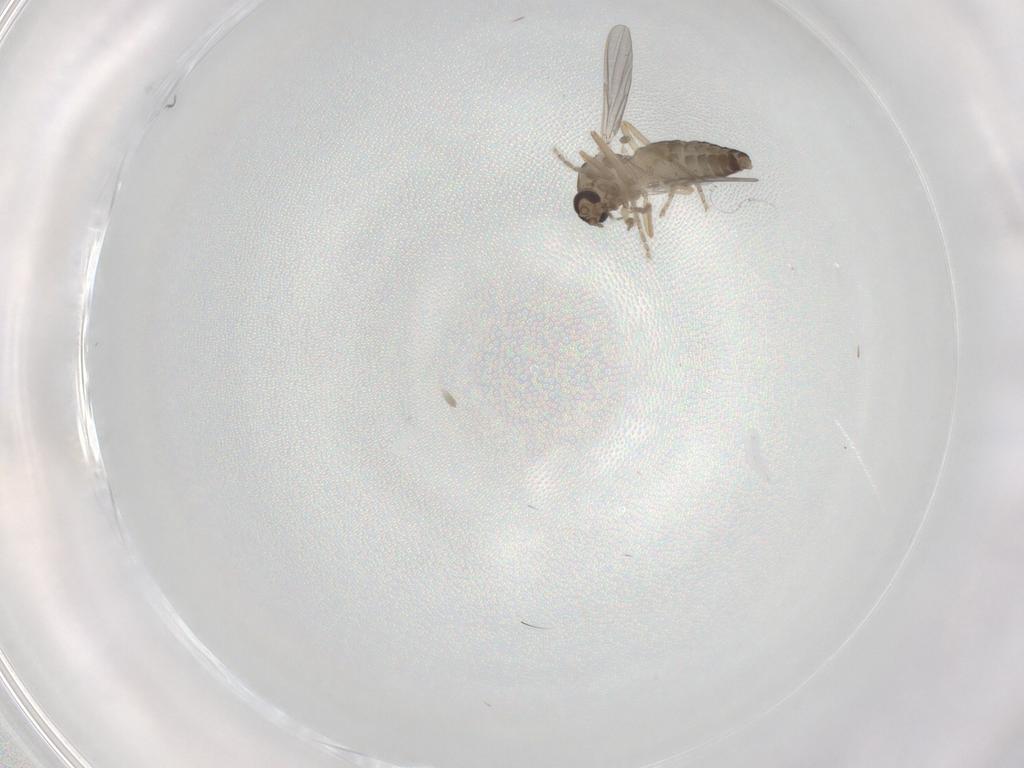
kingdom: Animalia
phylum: Arthropoda
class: Insecta
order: Diptera
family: Ceratopogonidae
